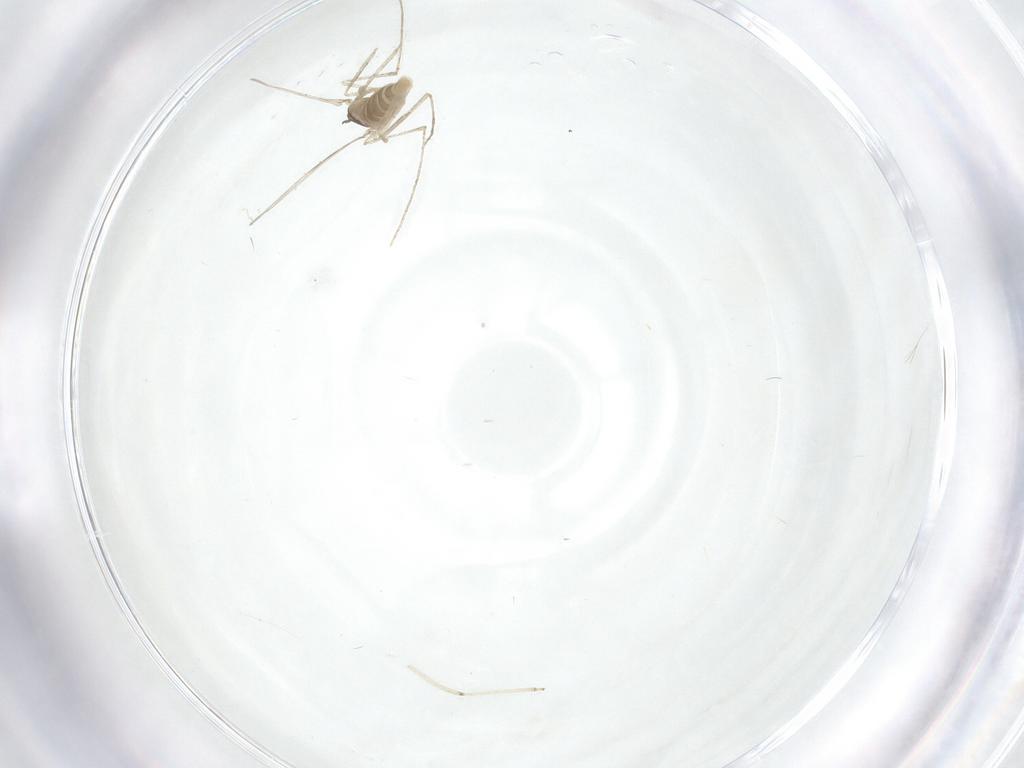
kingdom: Animalia
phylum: Arthropoda
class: Insecta
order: Diptera
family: Cecidomyiidae
